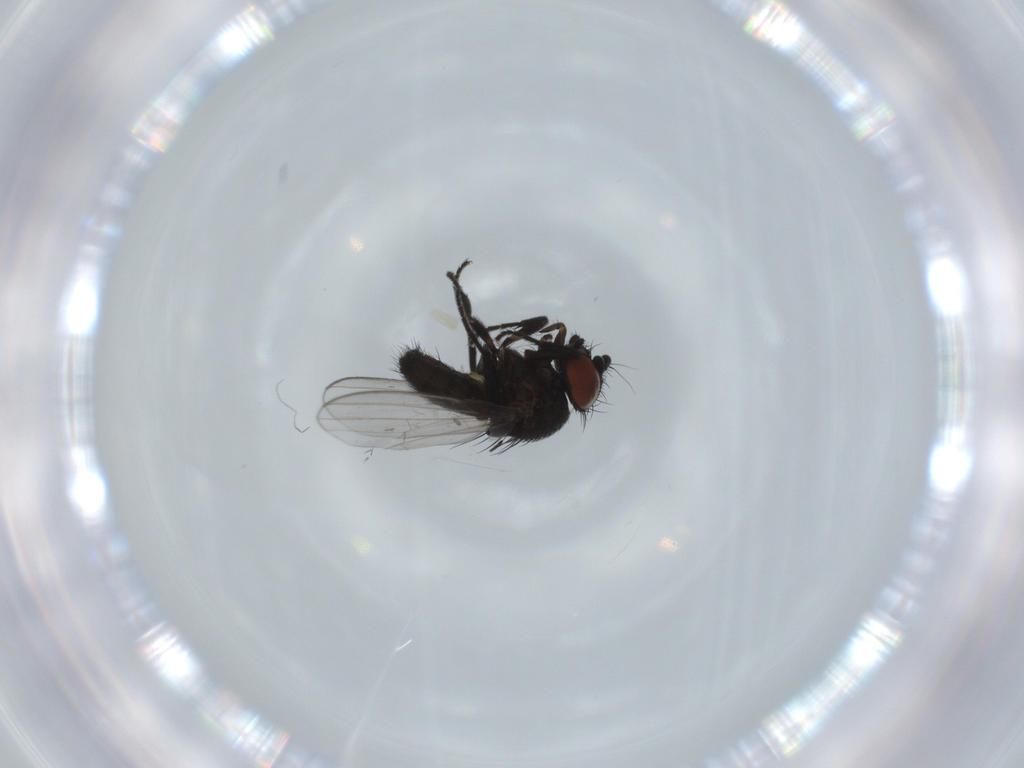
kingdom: Animalia
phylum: Arthropoda
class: Insecta
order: Diptera
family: Milichiidae
